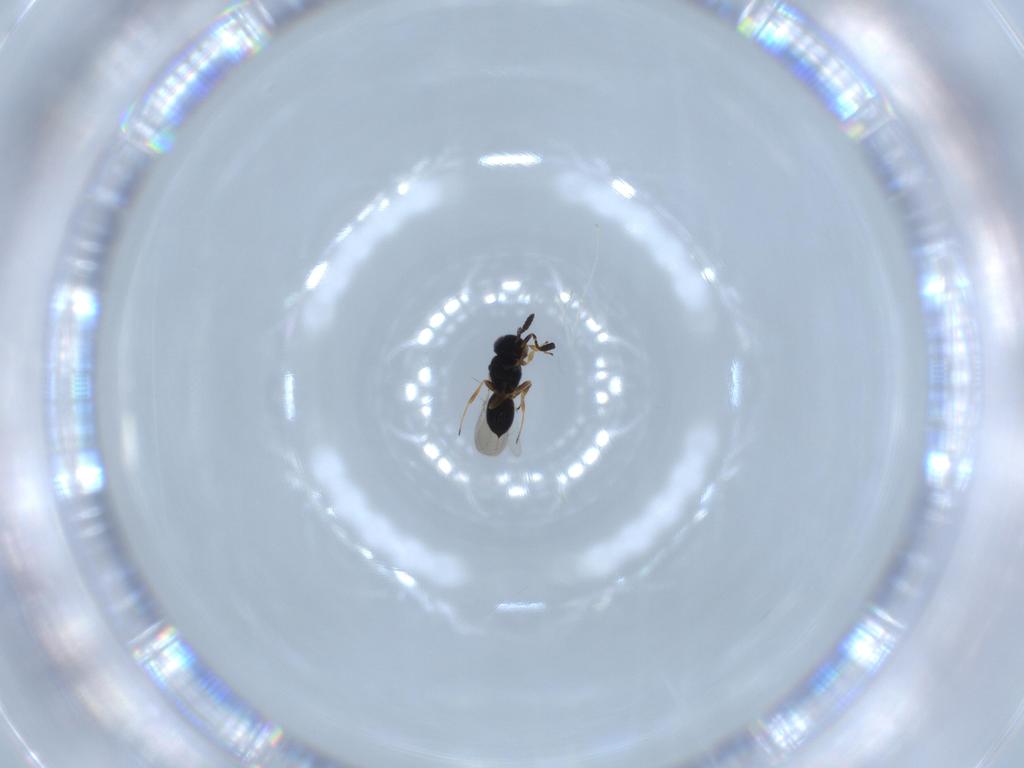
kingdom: Animalia
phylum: Arthropoda
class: Insecta
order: Hymenoptera
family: Scelionidae
